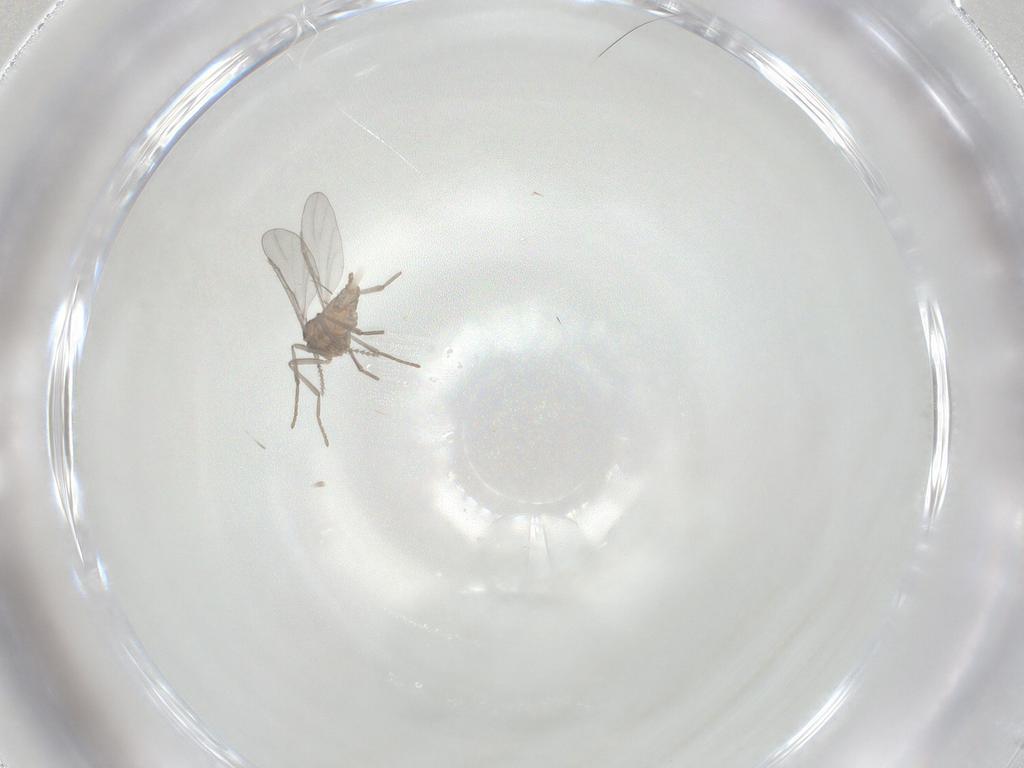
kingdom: Animalia
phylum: Arthropoda
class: Insecta
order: Diptera
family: Cecidomyiidae
